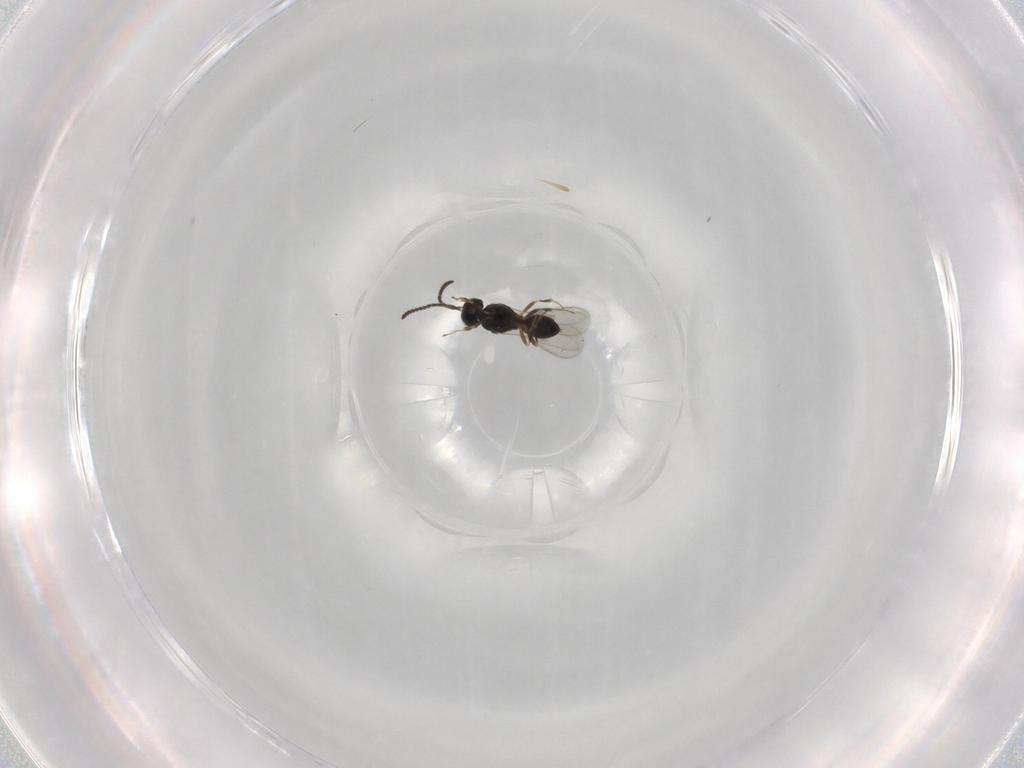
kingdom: Animalia
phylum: Arthropoda
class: Insecta
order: Hymenoptera
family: Scelionidae
